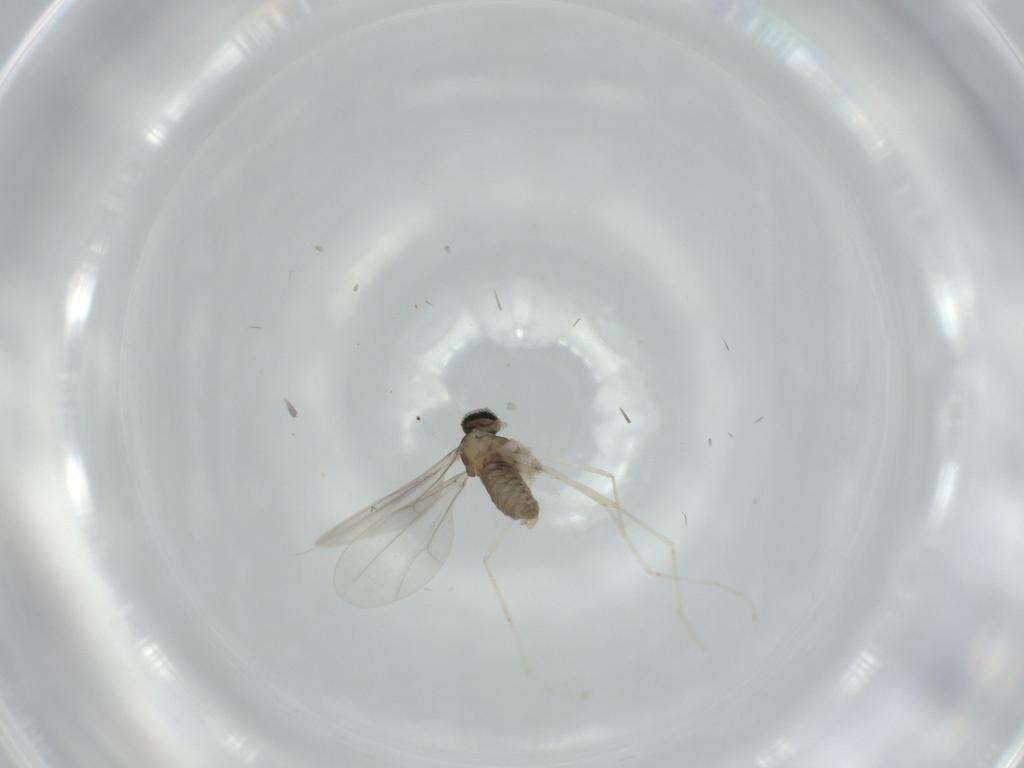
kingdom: Animalia
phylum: Arthropoda
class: Insecta
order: Diptera
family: Cecidomyiidae
